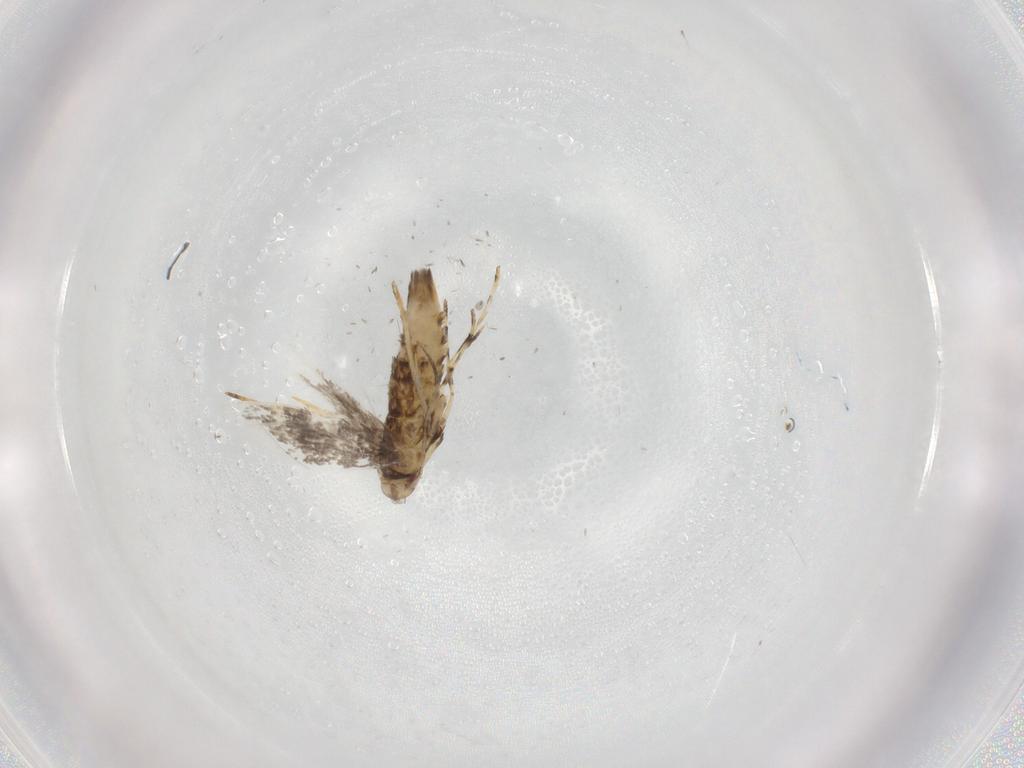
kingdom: Animalia
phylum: Arthropoda
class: Insecta
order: Lepidoptera
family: Gracillariidae
